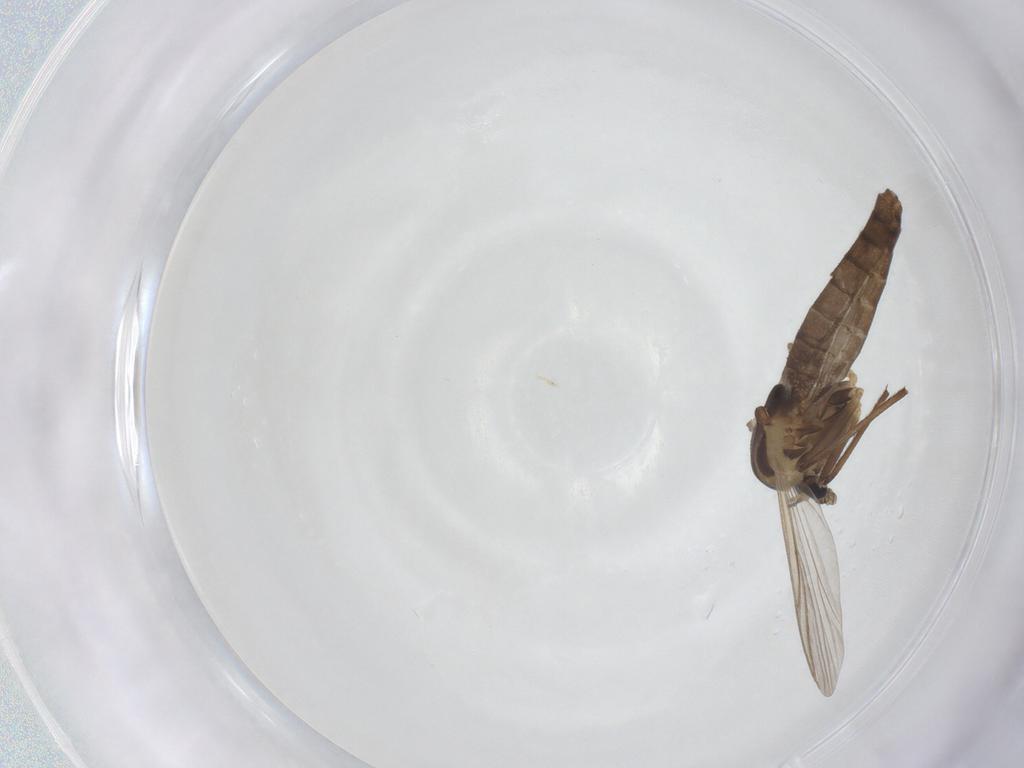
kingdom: Animalia
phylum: Arthropoda
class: Insecta
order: Diptera
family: Chironomidae
